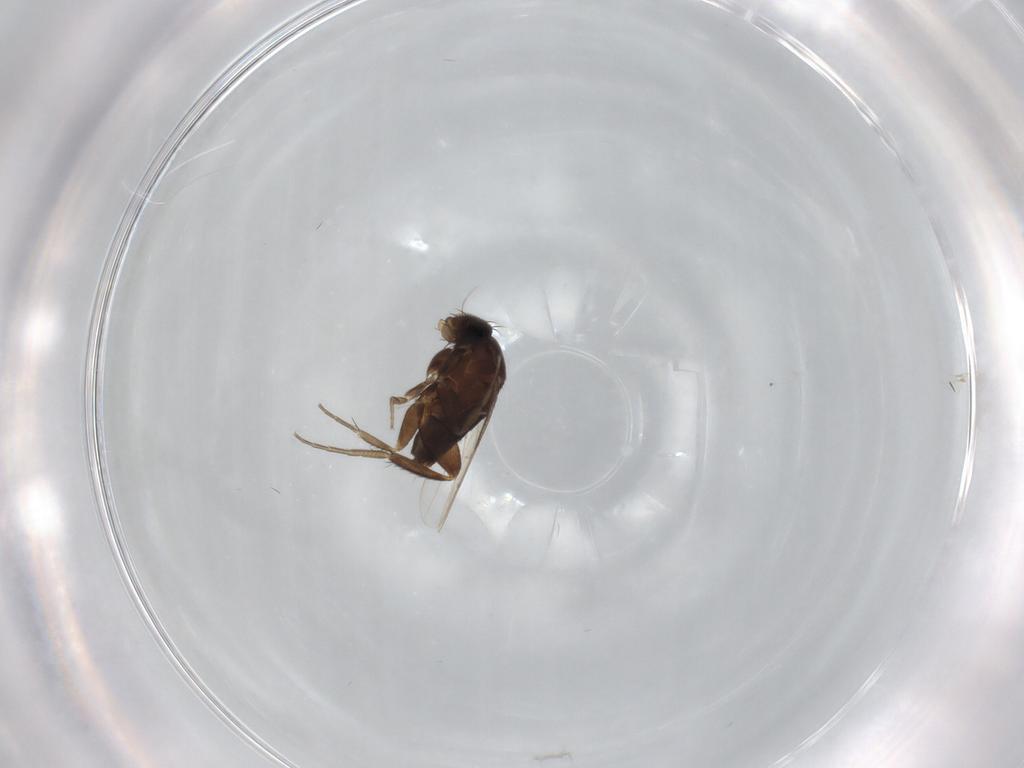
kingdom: Animalia
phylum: Arthropoda
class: Insecta
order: Diptera
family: Phoridae
